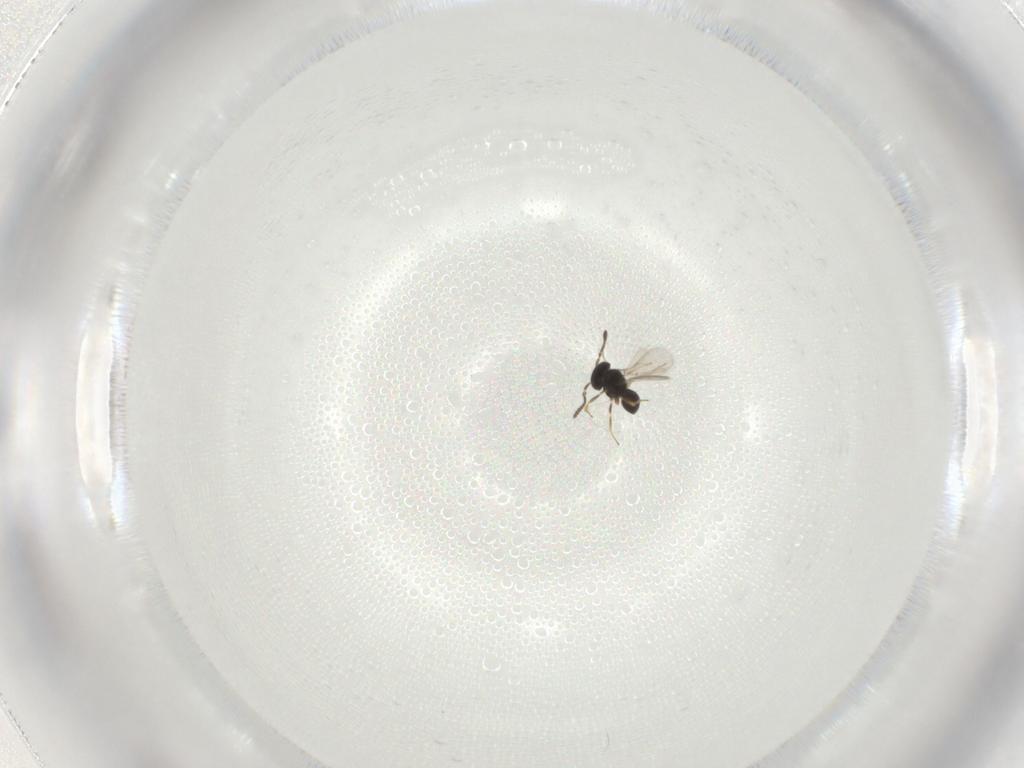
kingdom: Animalia
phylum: Arthropoda
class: Insecta
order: Hymenoptera
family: Scelionidae
